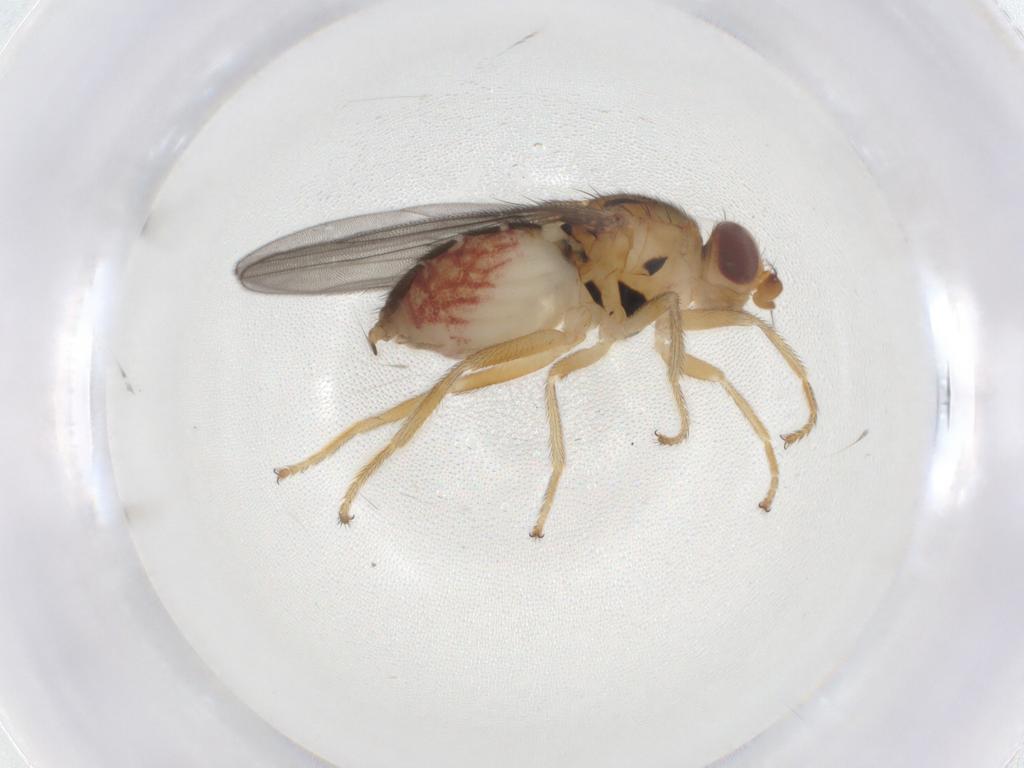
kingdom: Animalia
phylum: Arthropoda
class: Insecta
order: Diptera
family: Chloropidae
